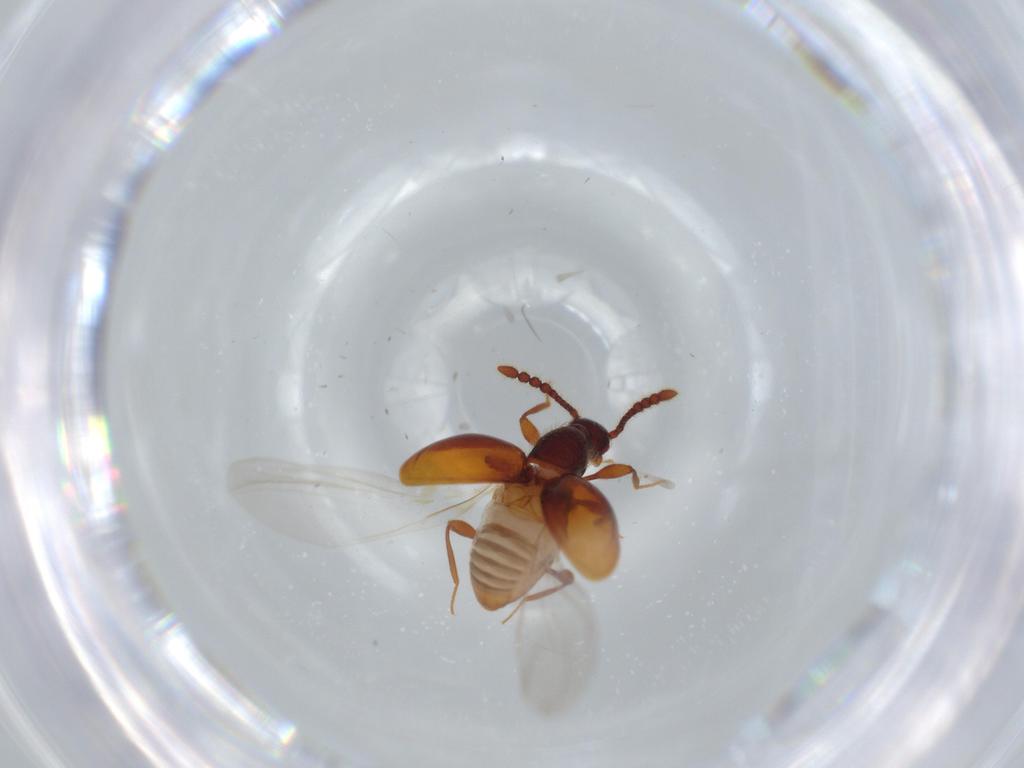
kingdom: Animalia
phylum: Arthropoda
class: Insecta
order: Coleoptera
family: Staphylinidae
